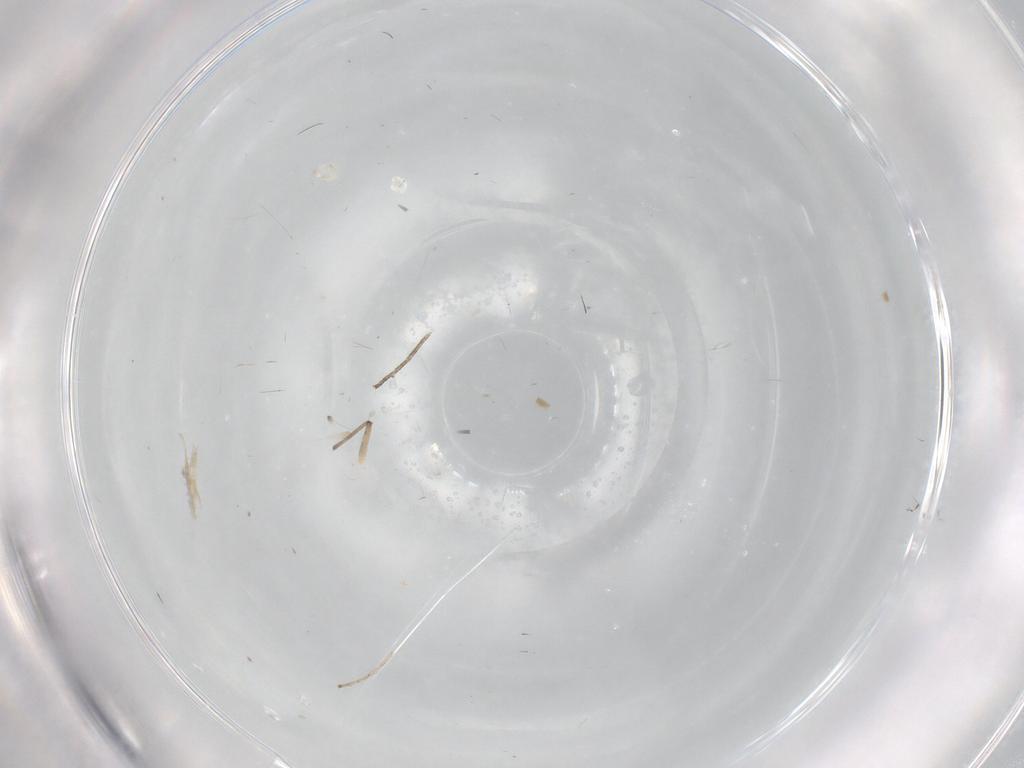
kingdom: Animalia
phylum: Arthropoda
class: Insecta
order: Diptera
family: Cecidomyiidae
